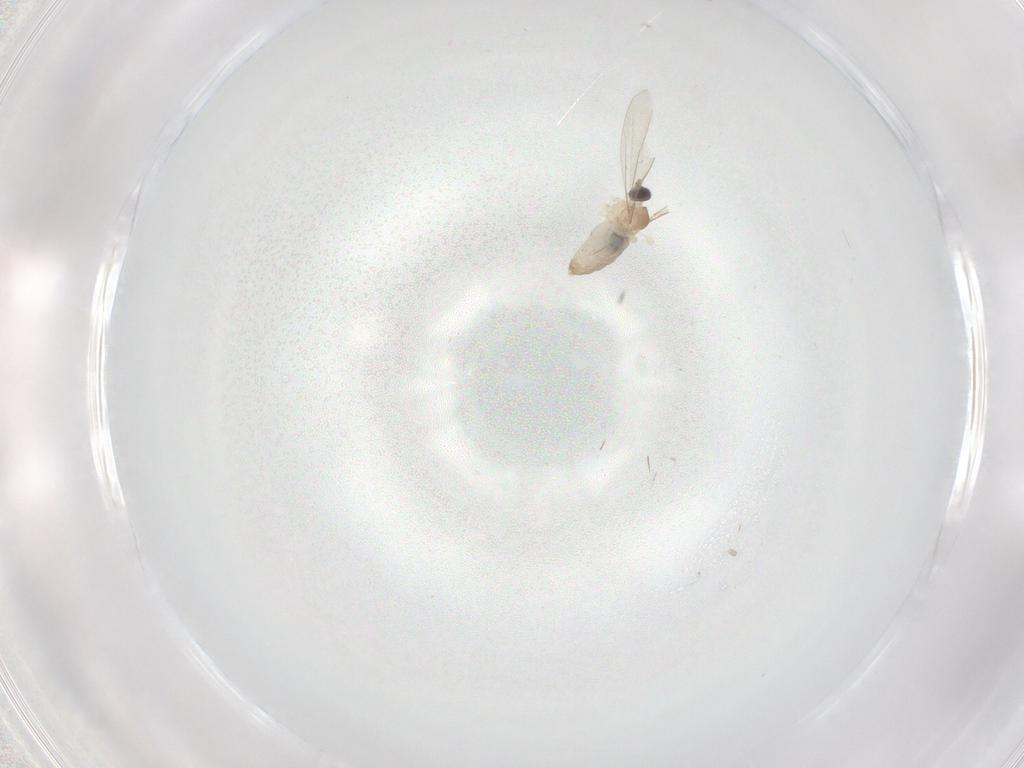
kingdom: Animalia
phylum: Arthropoda
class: Insecta
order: Diptera
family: Cecidomyiidae
